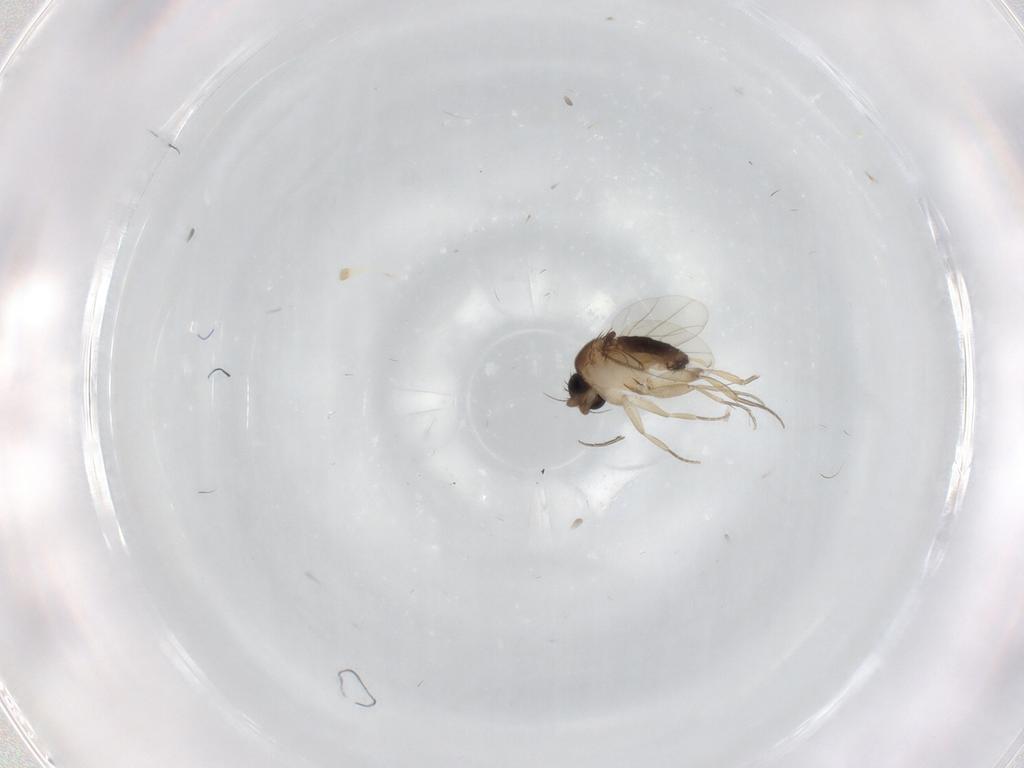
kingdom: Animalia
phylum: Arthropoda
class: Insecta
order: Diptera
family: Phoridae
